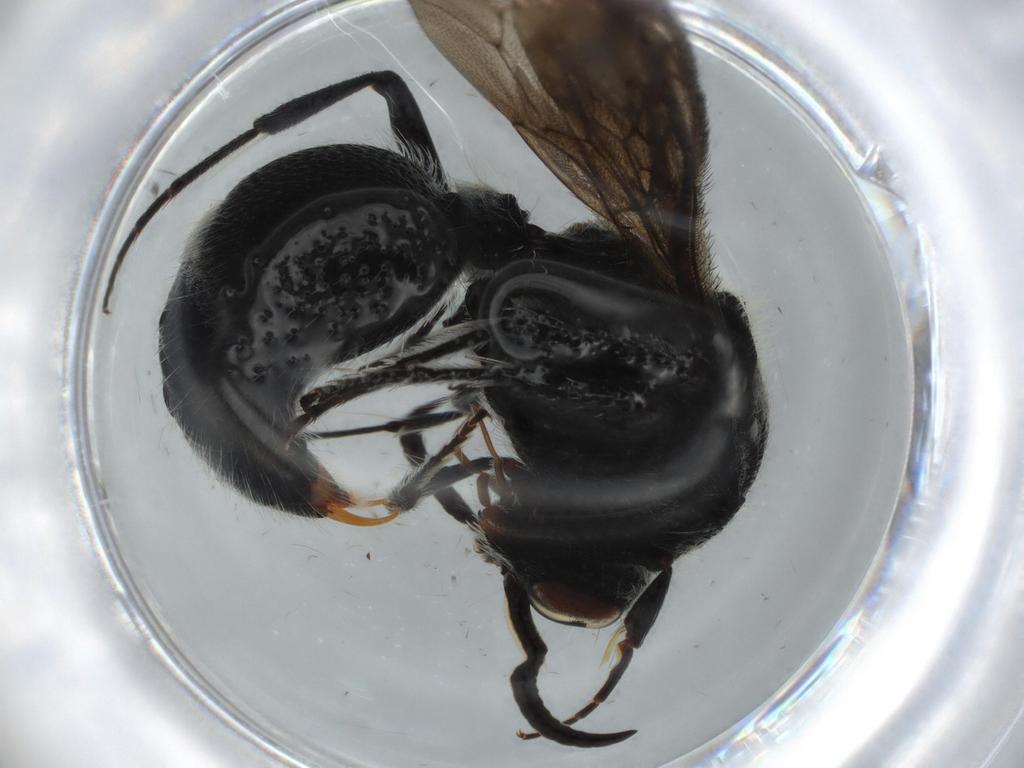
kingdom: Animalia
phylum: Arthropoda
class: Insecta
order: Hymenoptera
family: Mutillidae
